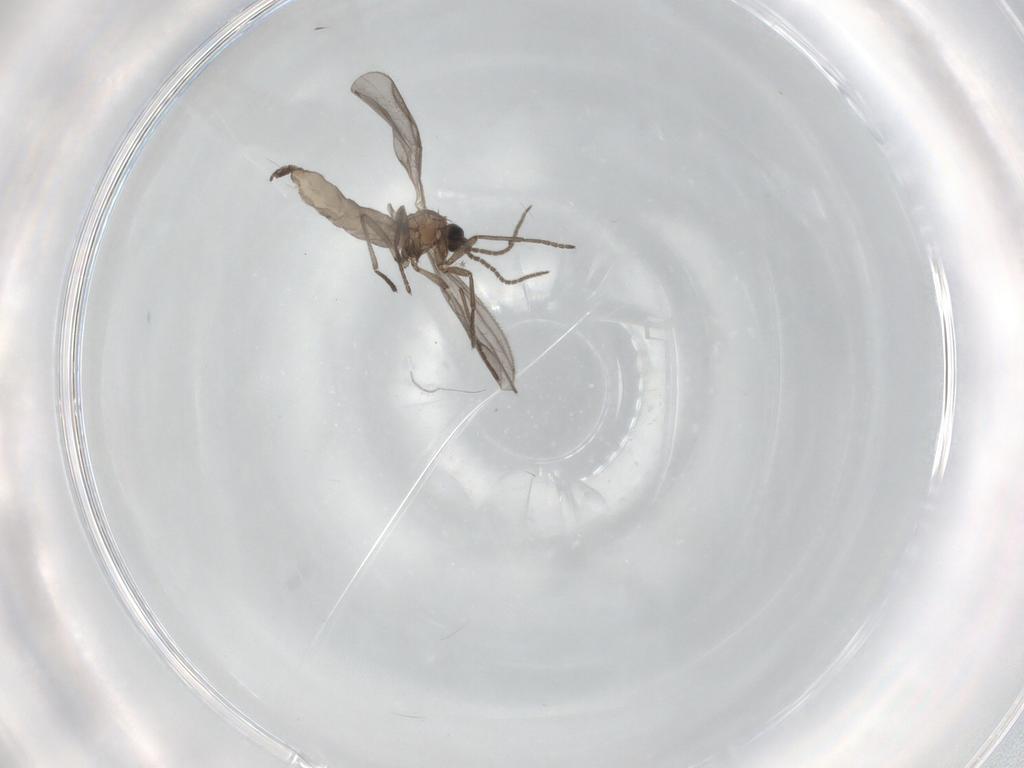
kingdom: Animalia
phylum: Arthropoda
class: Insecta
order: Diptera
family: Sciaridae
